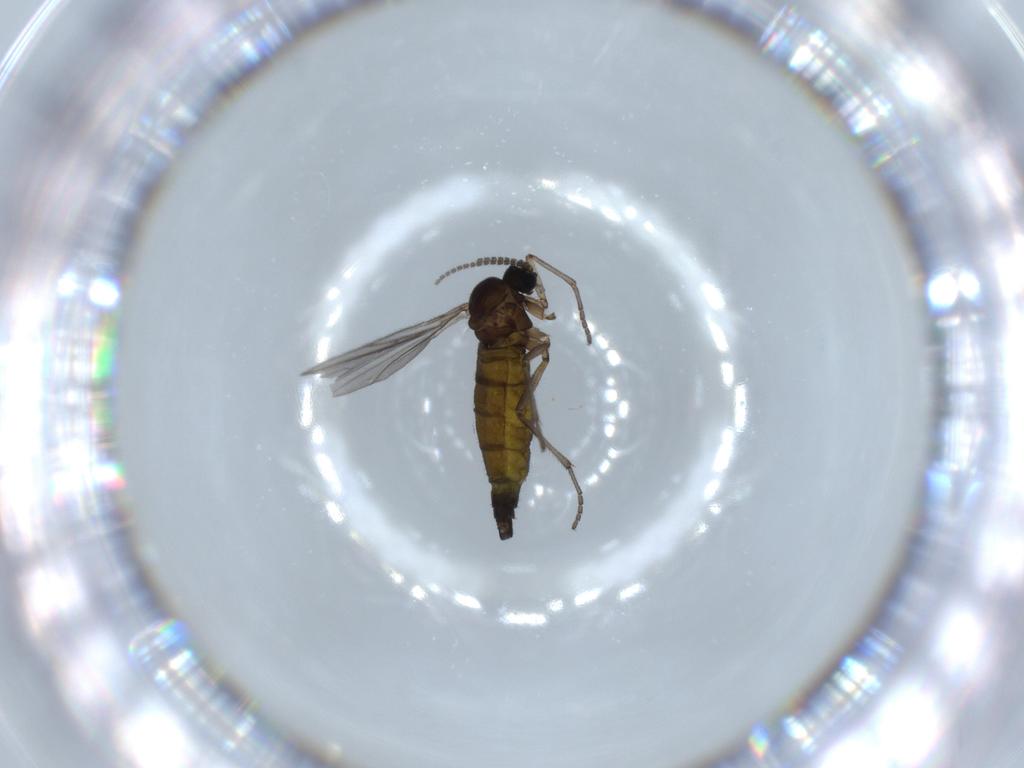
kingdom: Animalia
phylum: Arthropoda
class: Insecta
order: Diptera
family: Sciaridae
